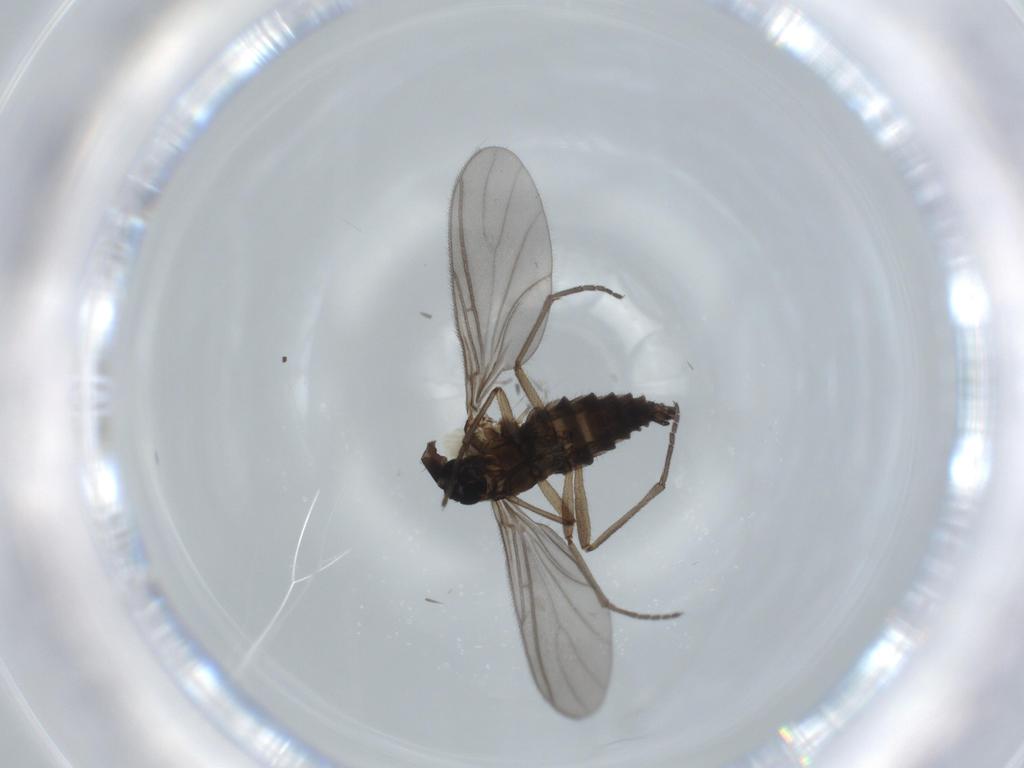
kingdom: Animalia
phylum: Arthropoda
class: Insecta
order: Diptera
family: Sciaridae
